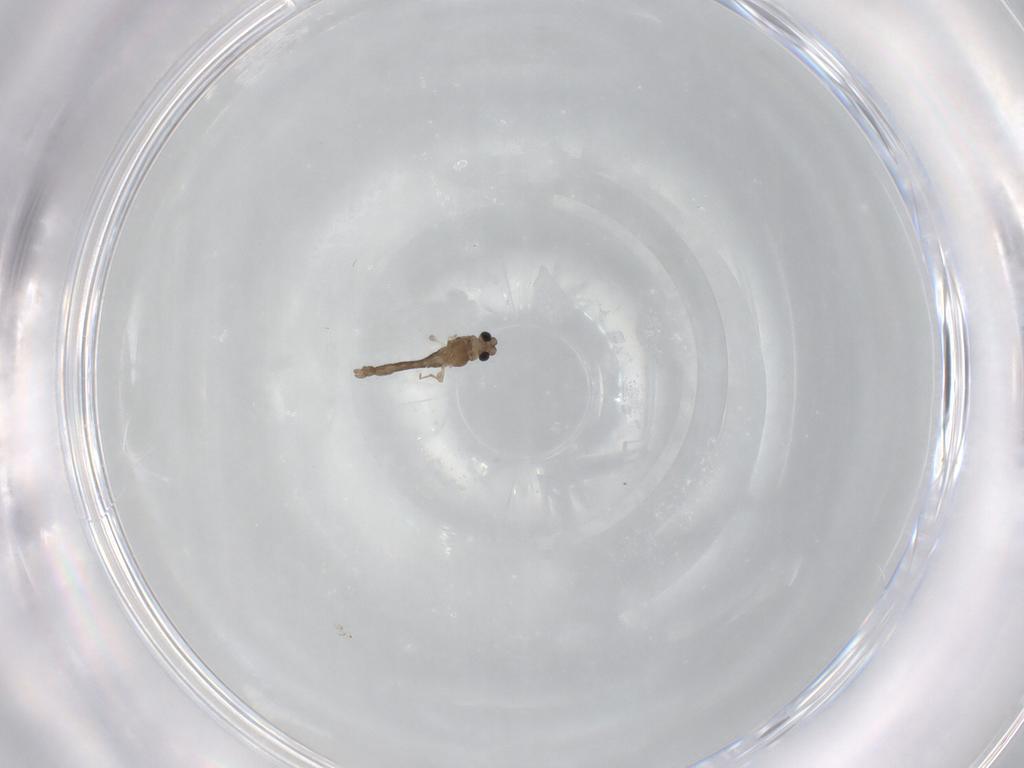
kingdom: Animalia
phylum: Arthropoda
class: Insecta
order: Diptera
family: Chironomidae
